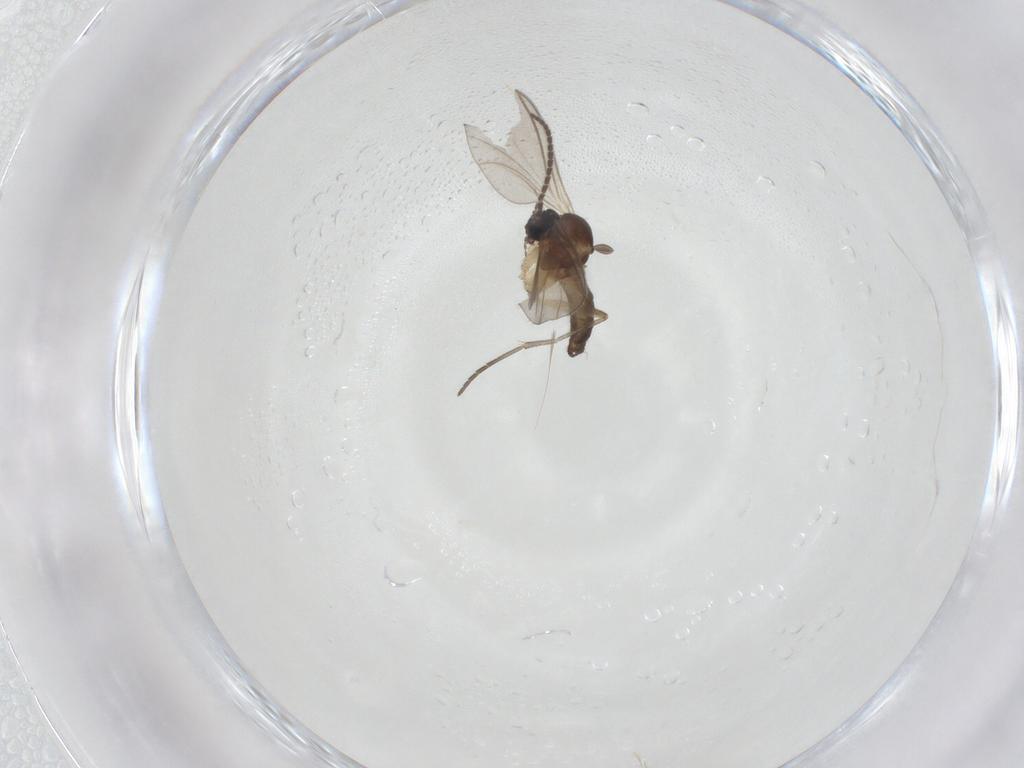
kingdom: Animalia
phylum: Arthropoda
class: Insecta
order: Diptera
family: Sciaridae
